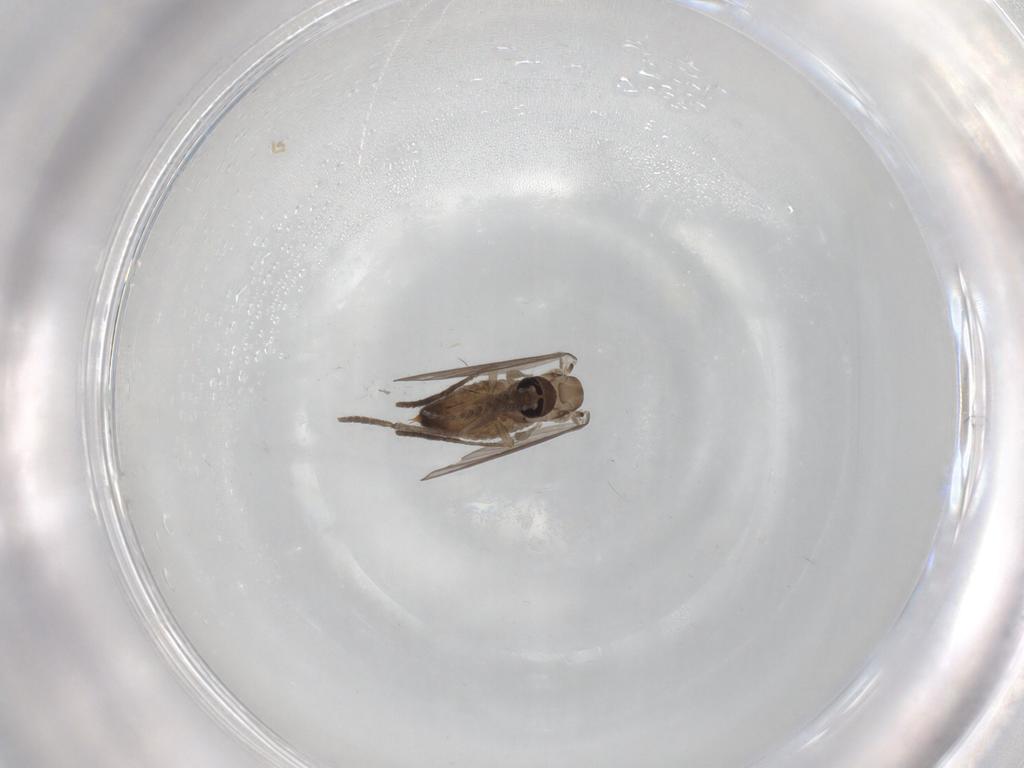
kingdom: Animalia
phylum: Arthropoda
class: Insecta
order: Diptera
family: Psychodidae
